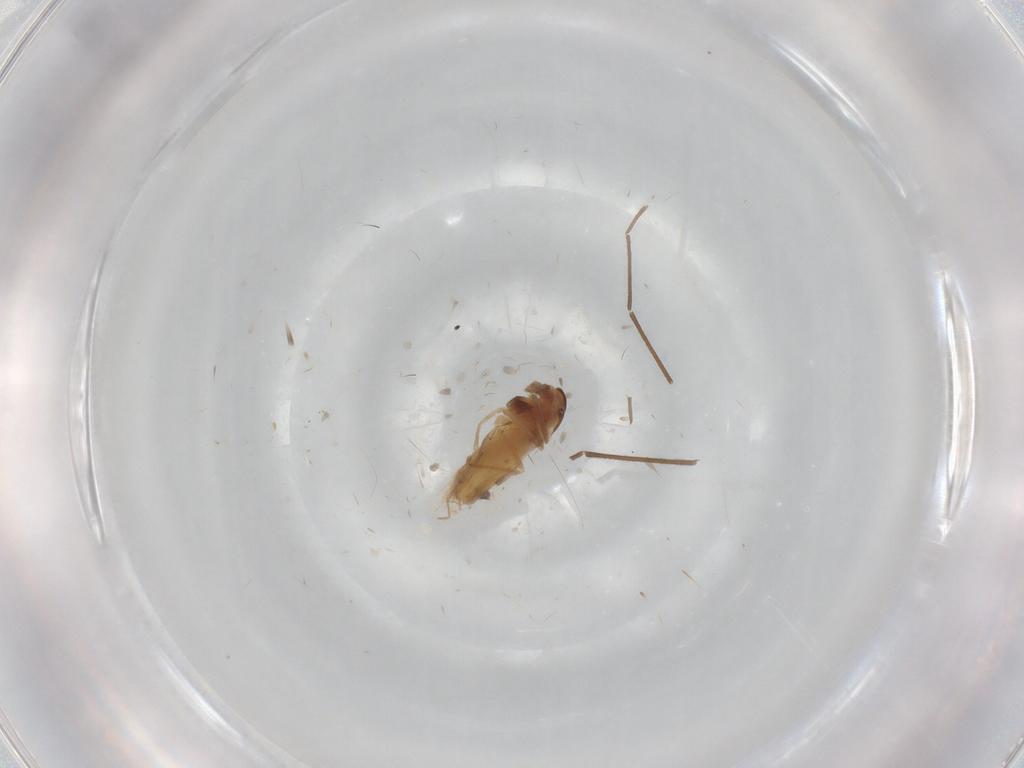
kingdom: Animalia
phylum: Arthropoda
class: Insecta
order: Diptera
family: Chironomidae
